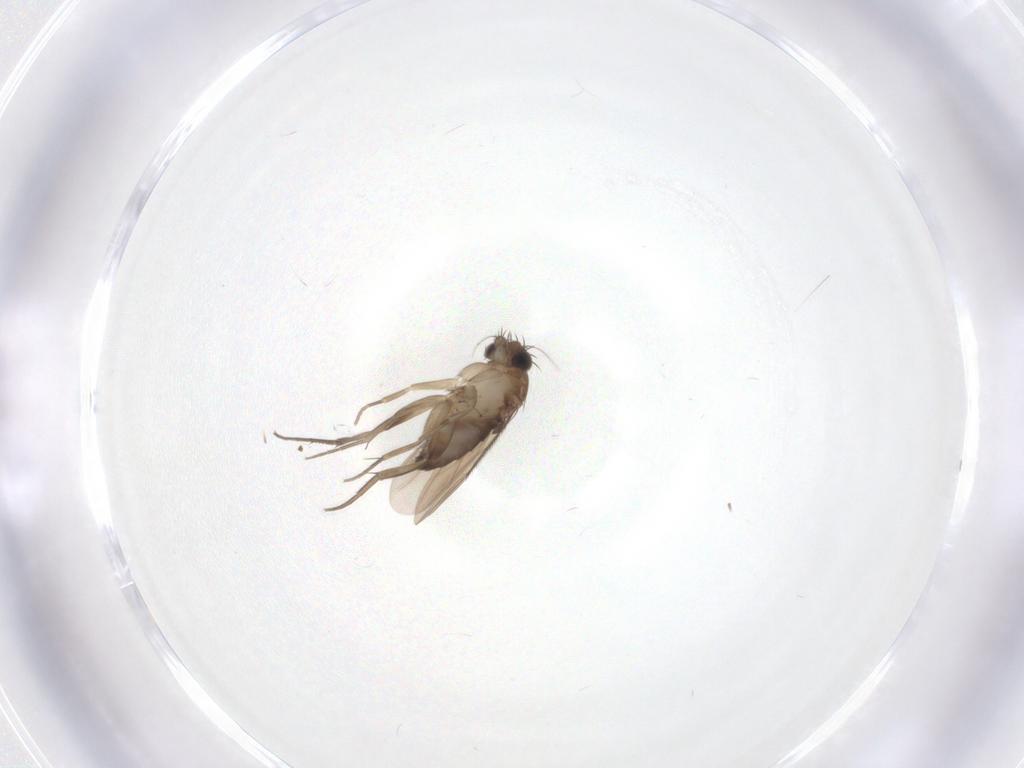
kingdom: Animalia
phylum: Arthropoda
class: Insecta
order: Diptera
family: Phoridae
